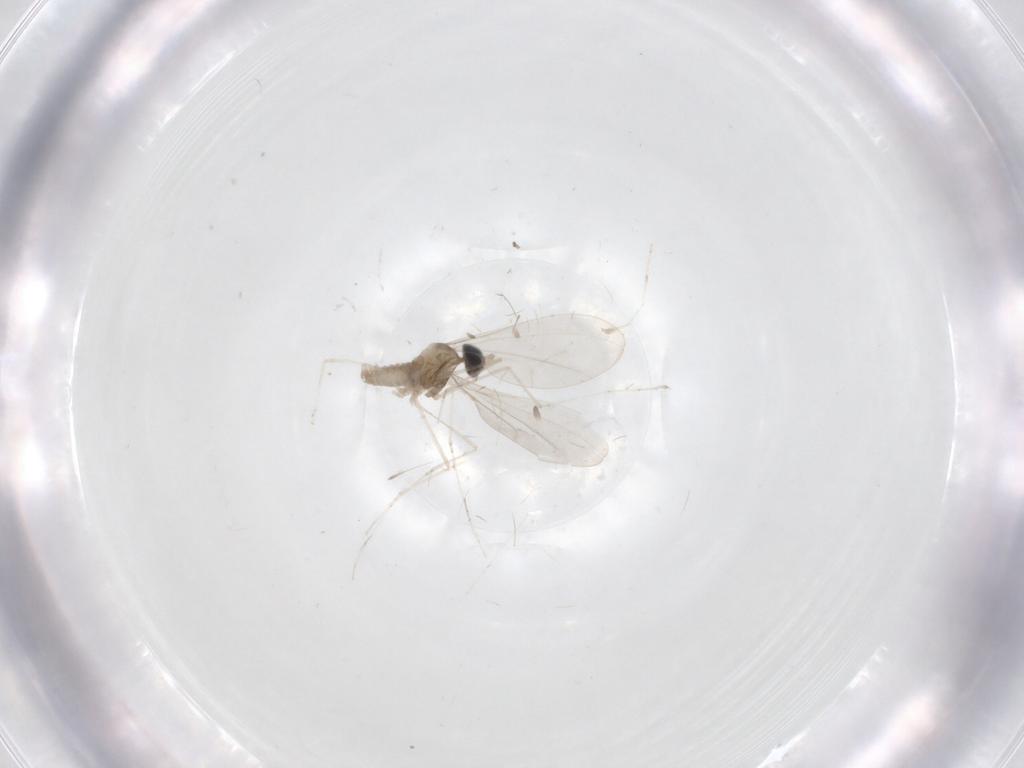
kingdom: Animalia
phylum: Arthropoda
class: Insecta
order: Diptera
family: Cecidomyiidae
